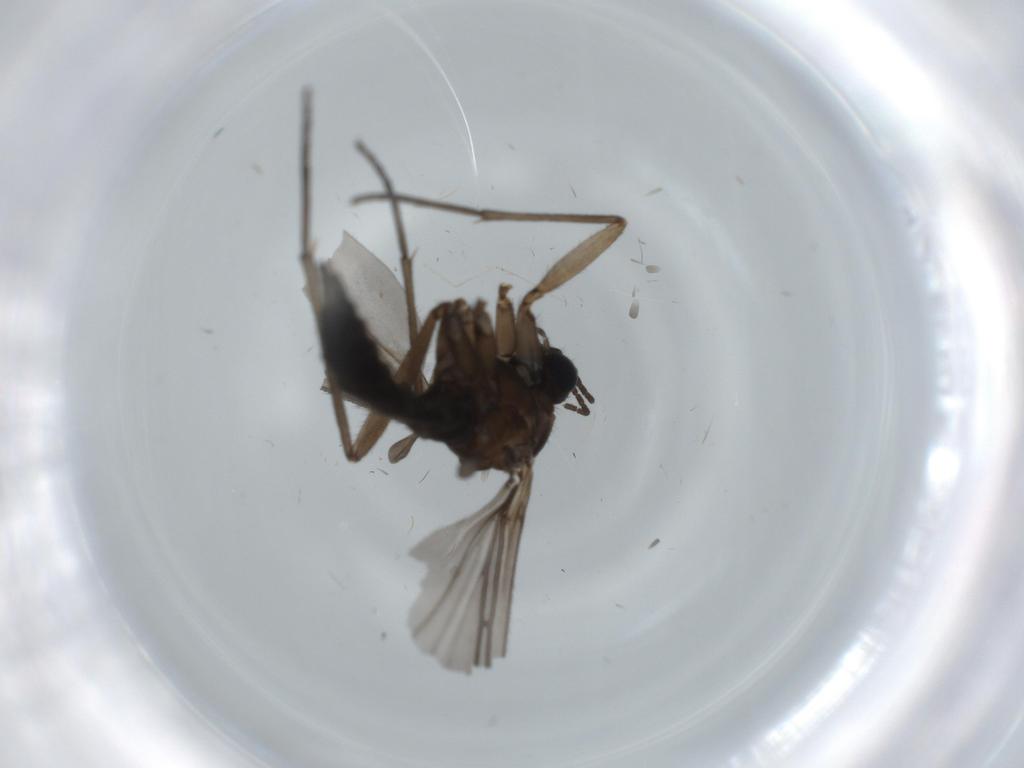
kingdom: Animalia
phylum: Arthropoda
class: Insecta
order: Diptera
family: Sciaridae
